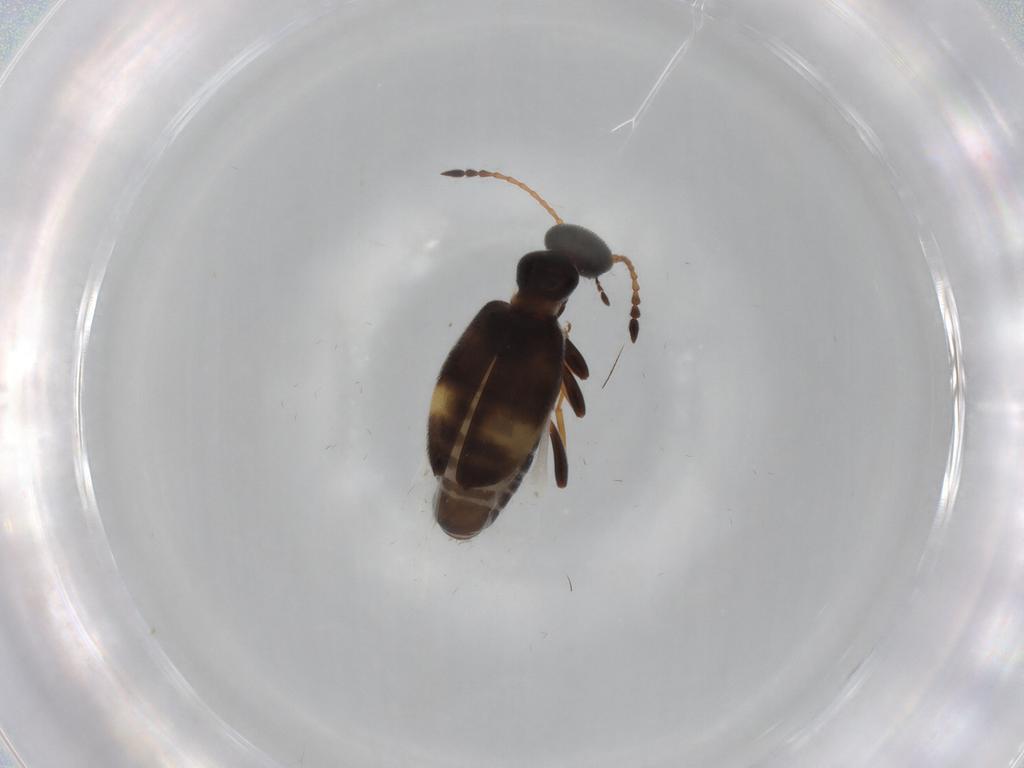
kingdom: Animalia
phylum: Arthropoda
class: Insecta
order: Coleoptera
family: Anthicidae
